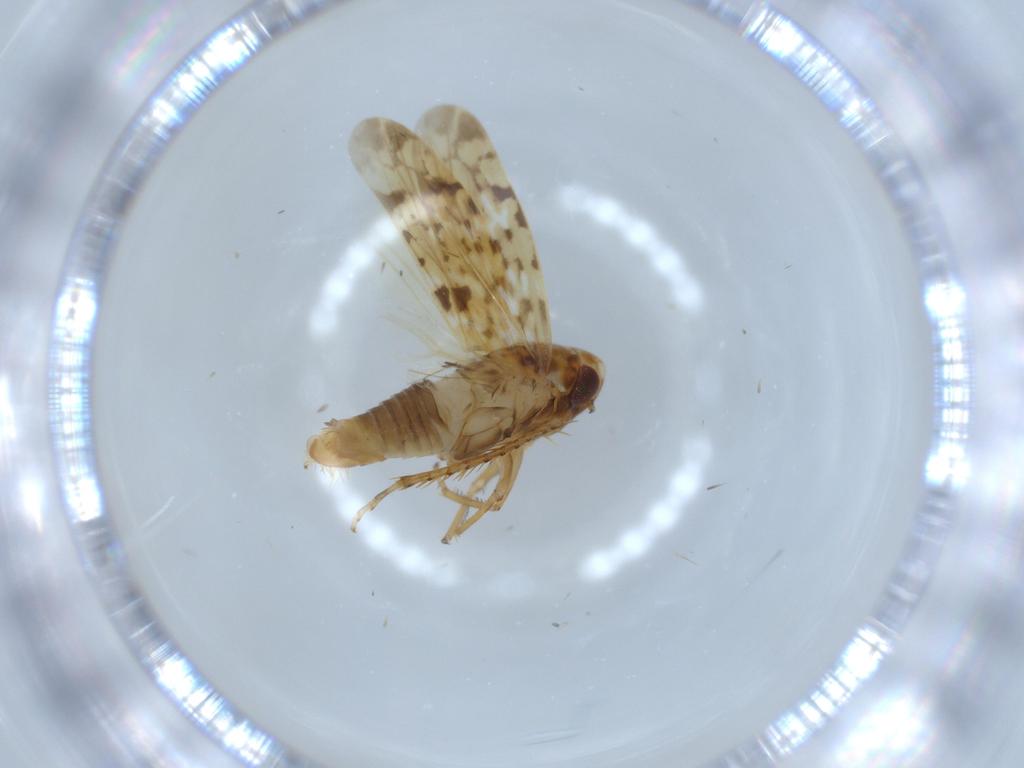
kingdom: Animalia
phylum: Arthropoda
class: Insecta
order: Hemiptera
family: Cicadellidae
